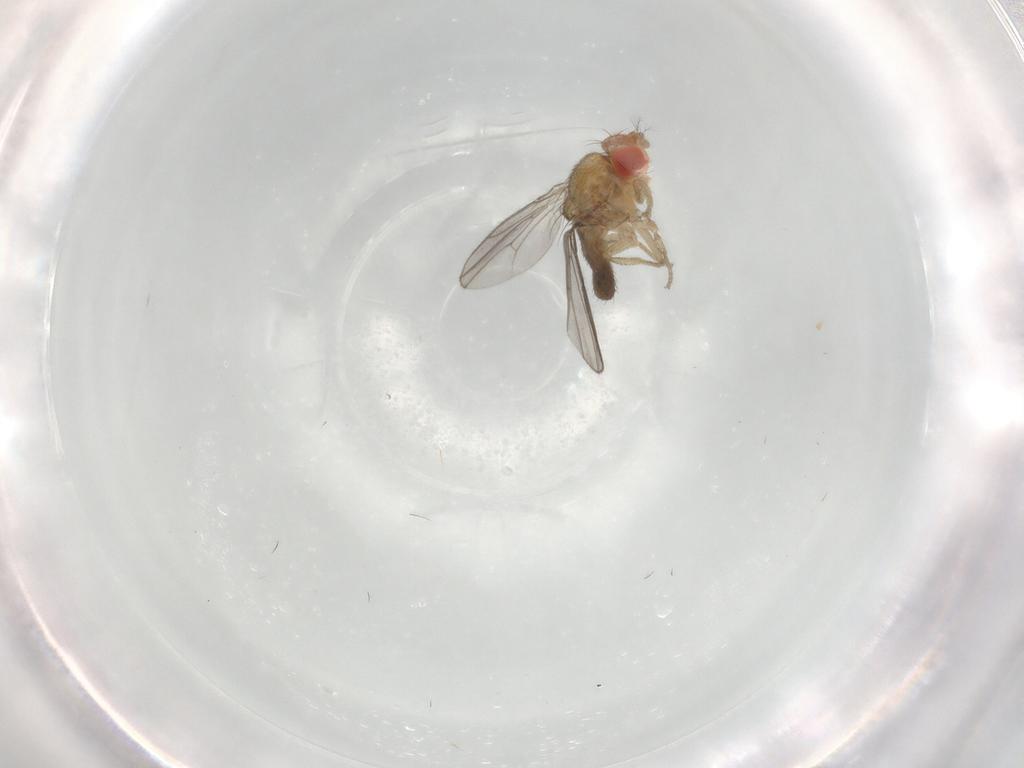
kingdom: Animalia
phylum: Arthropoda
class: Insecta
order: Diptera
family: Drosophilidae
